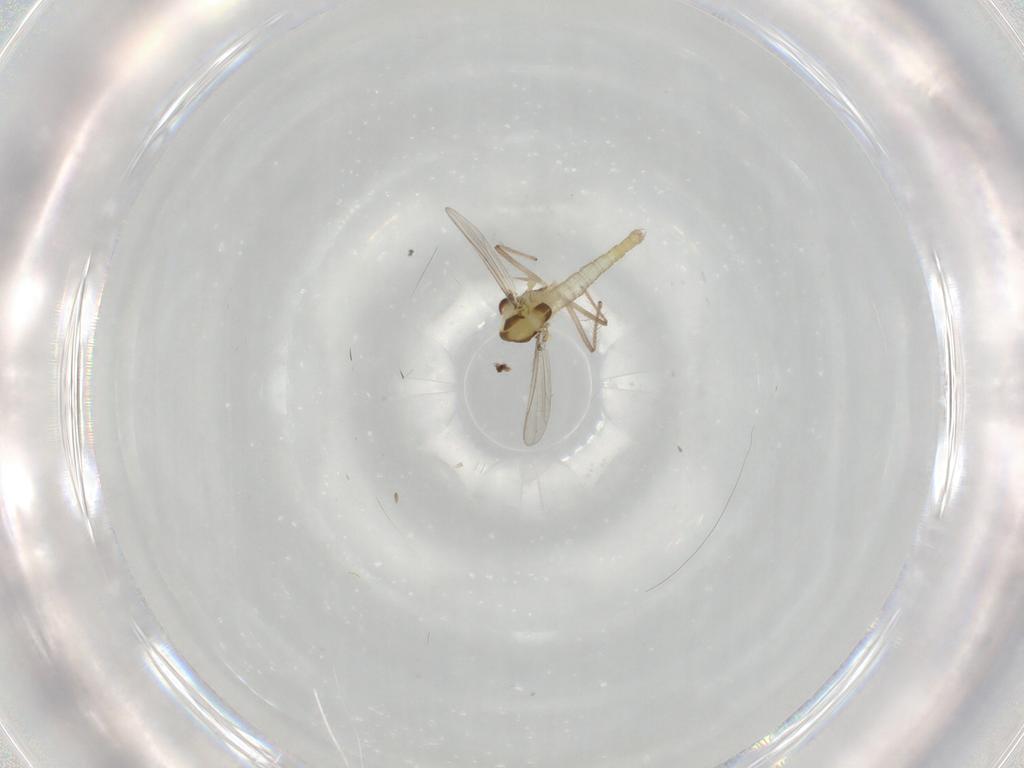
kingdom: Animalia
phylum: Arthropoda
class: Insecta
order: Diptera
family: Chironomidae
